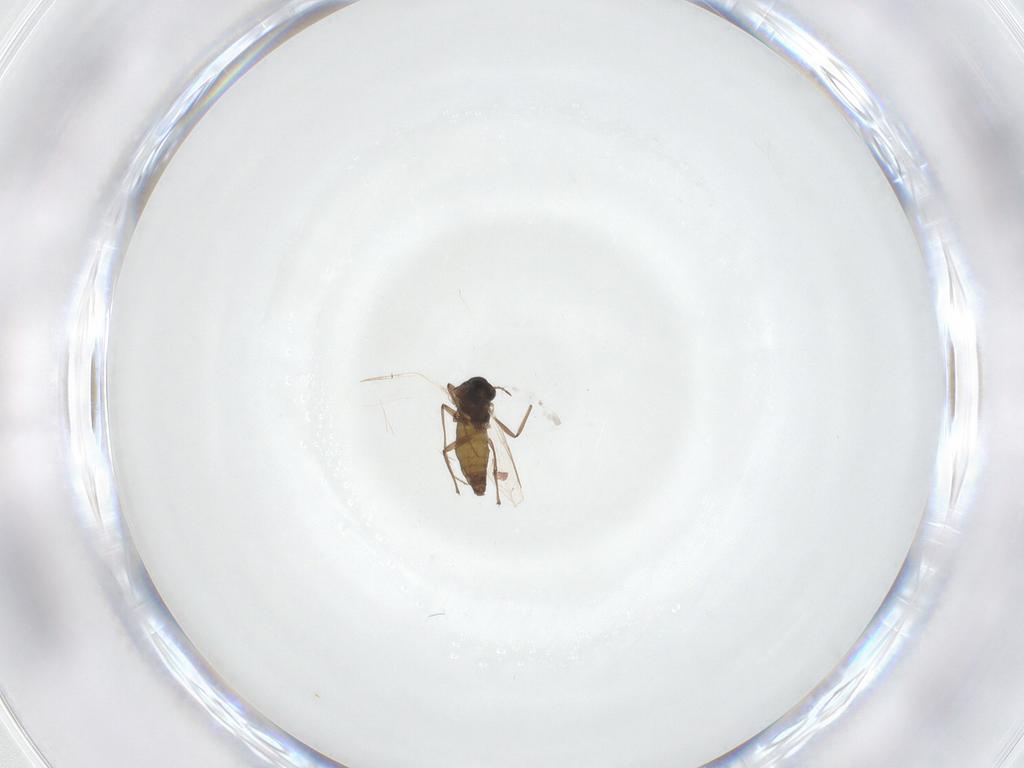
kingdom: Animalia
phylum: Arthropoda
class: Insecta
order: Diptera
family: Chironomidae
